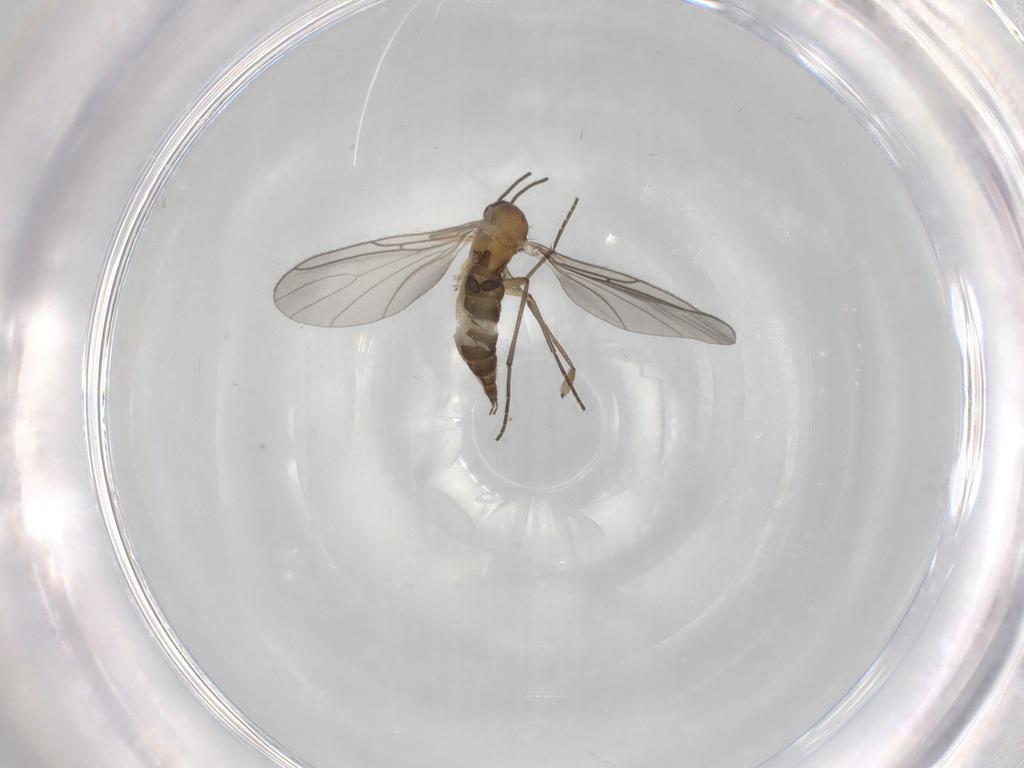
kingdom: Animalia
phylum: Arthropoda
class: Insecta
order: Diptera
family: Sciaridae
